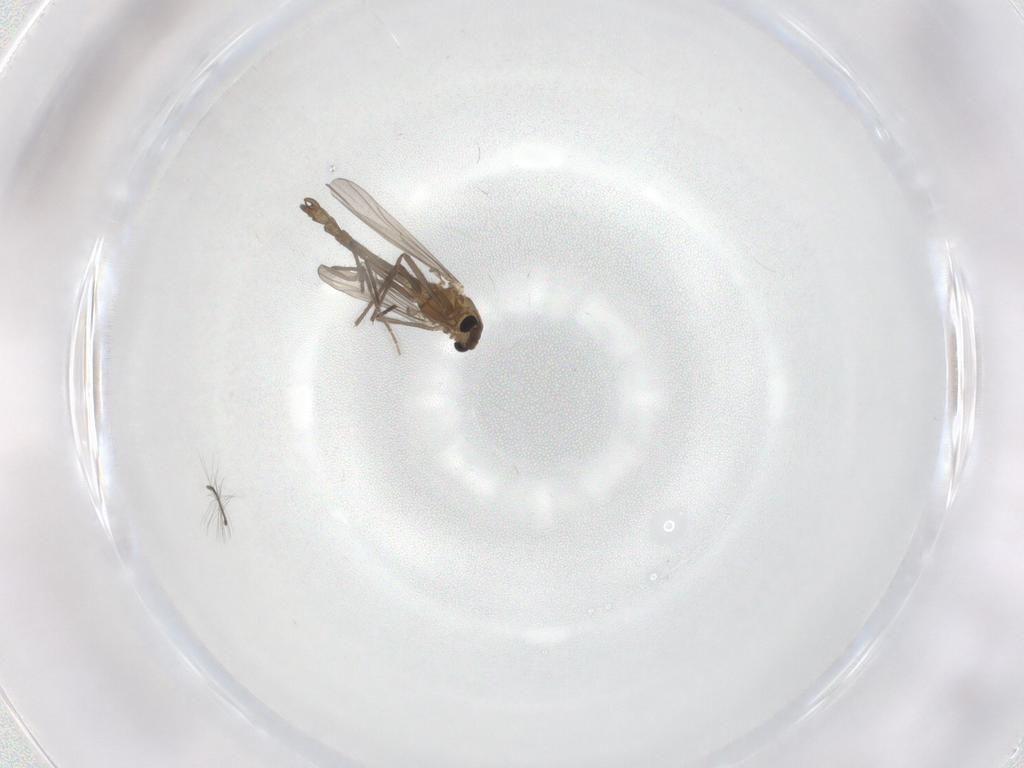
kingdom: Animalia
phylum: Arthropoda
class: Insecta
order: Diptera
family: Chironomidae
